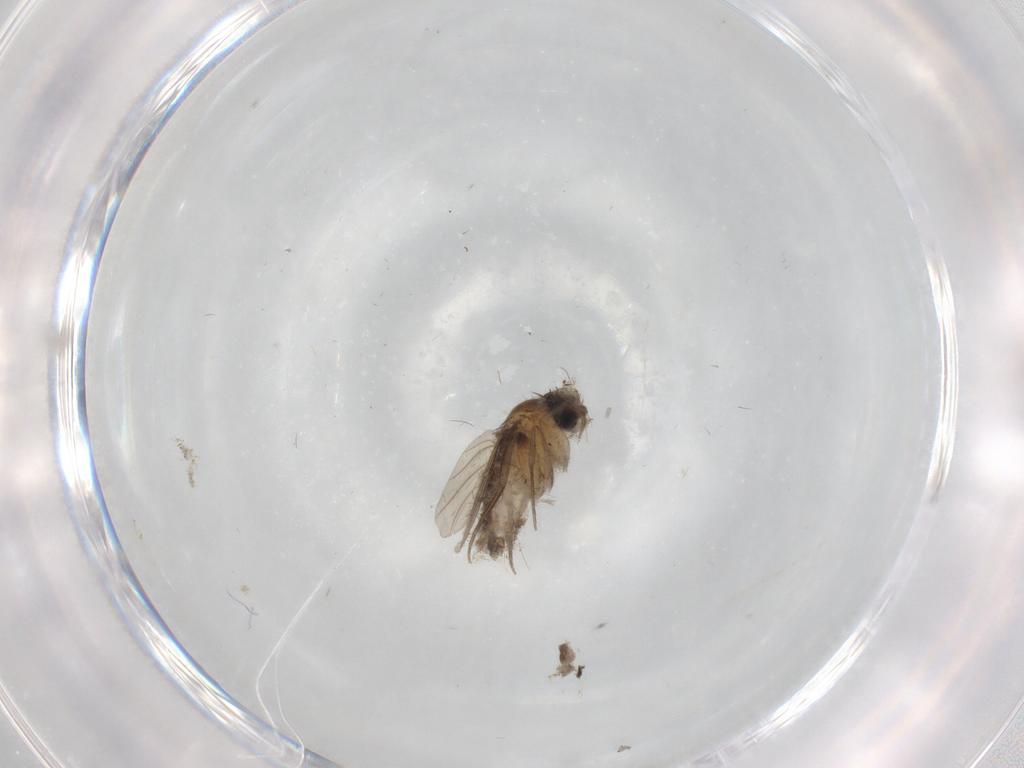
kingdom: Animalia
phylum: Arthropoda
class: Insecta
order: Diptera
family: Phoridae
